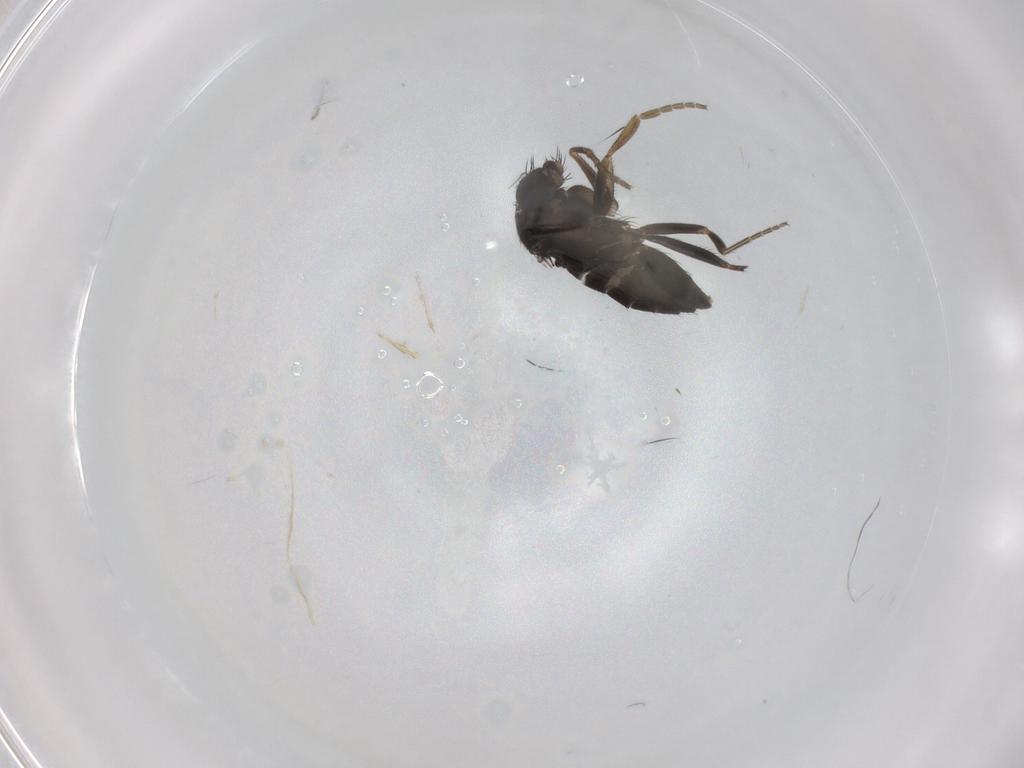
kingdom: Animalia
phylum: Arthropoda
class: Insecta
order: Diptera
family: Phoridae
